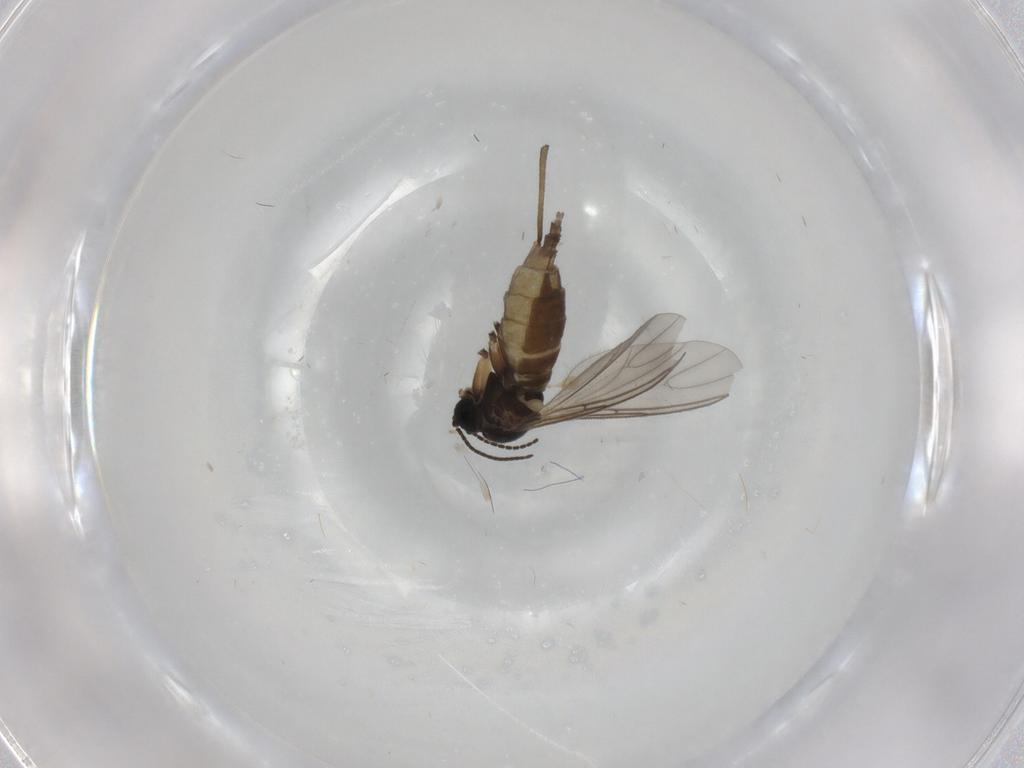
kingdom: Animalia
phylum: Arthropoda
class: Insecta
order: Diptera
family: Sciaridae
